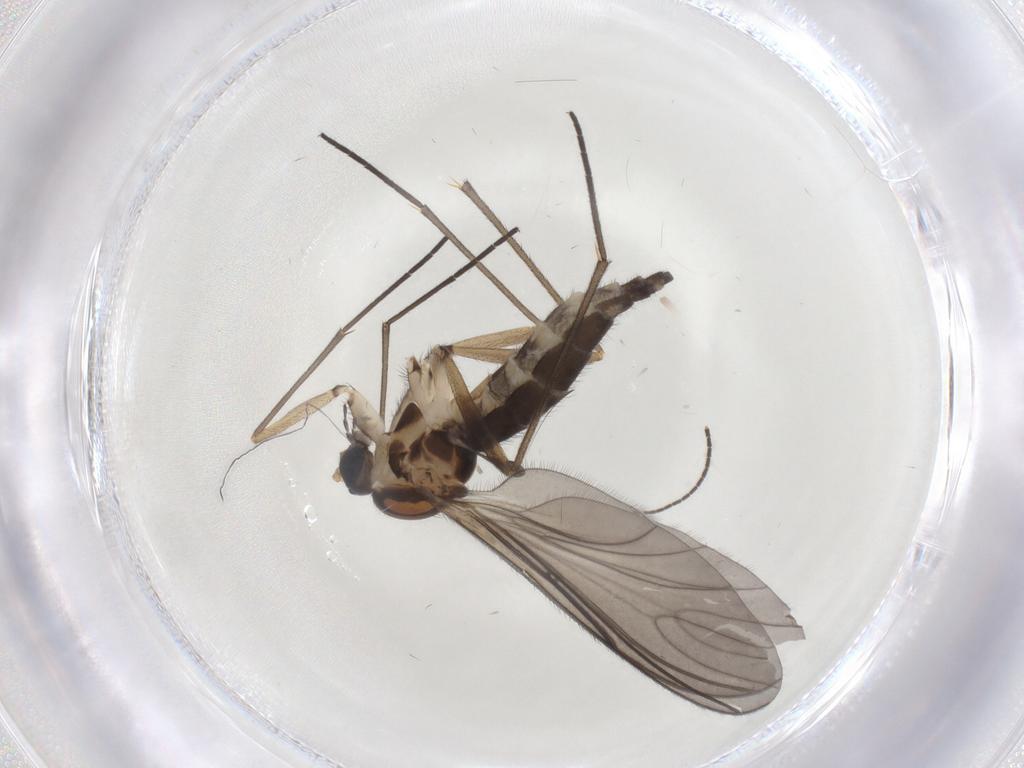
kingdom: Animalia
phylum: Arthropoda
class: Insecta
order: Diptera
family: Sciaridae
